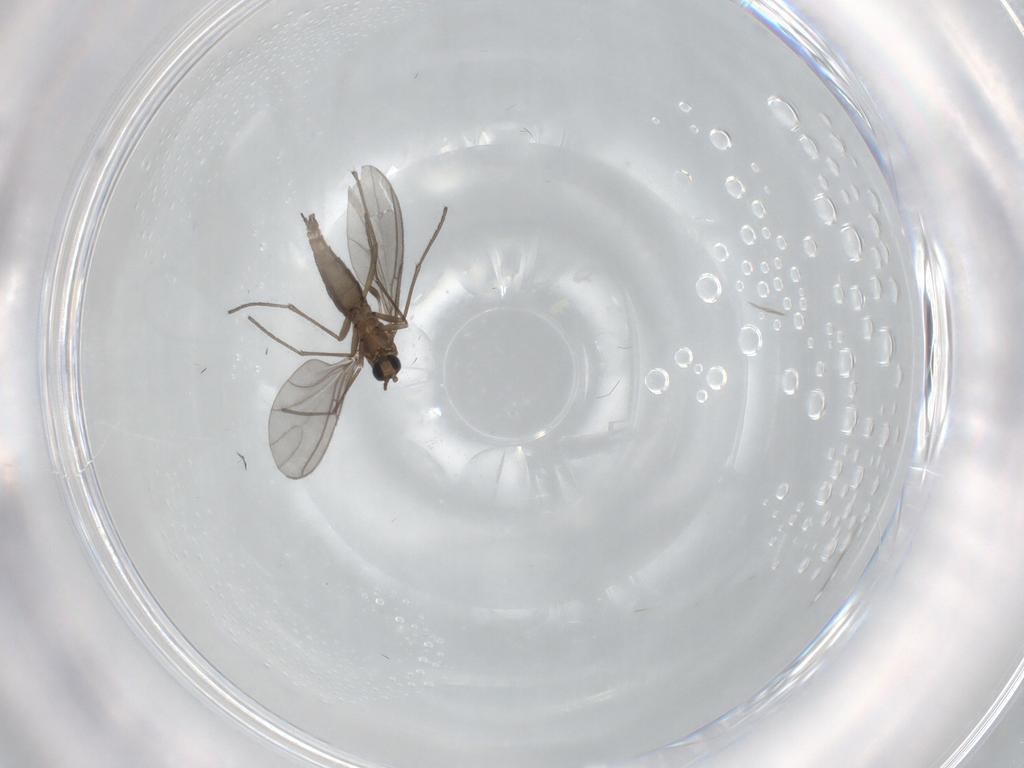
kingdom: Animalia
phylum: Arthropoda
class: Insecta
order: Diptera
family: Sciaridae
